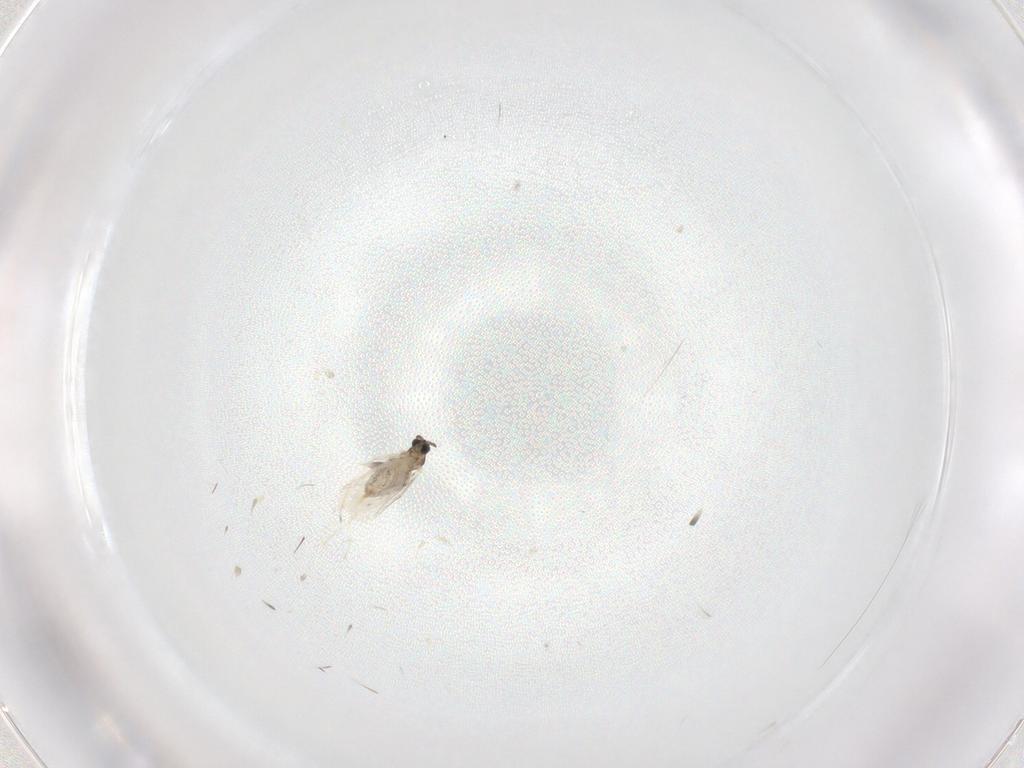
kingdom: Animalia
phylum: Arthropoda
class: Insecta
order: Diptera
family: Cecidomyiidae
